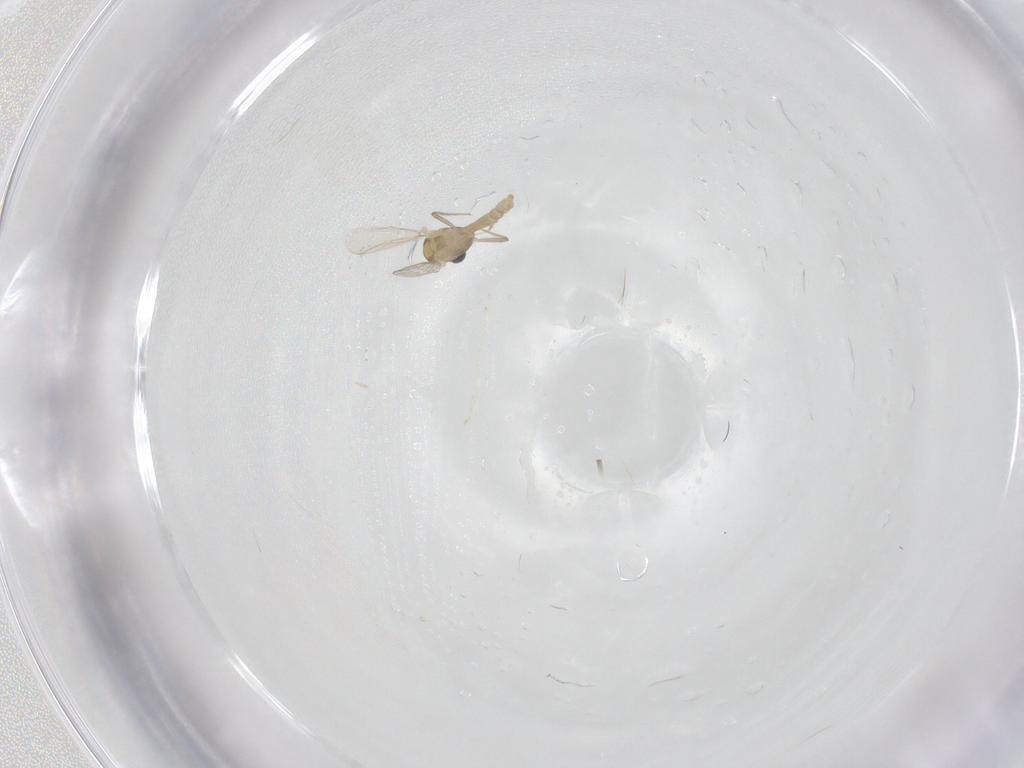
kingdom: Animalia
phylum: Arthropoda
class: Insecta
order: Diptera
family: Chironomidae
